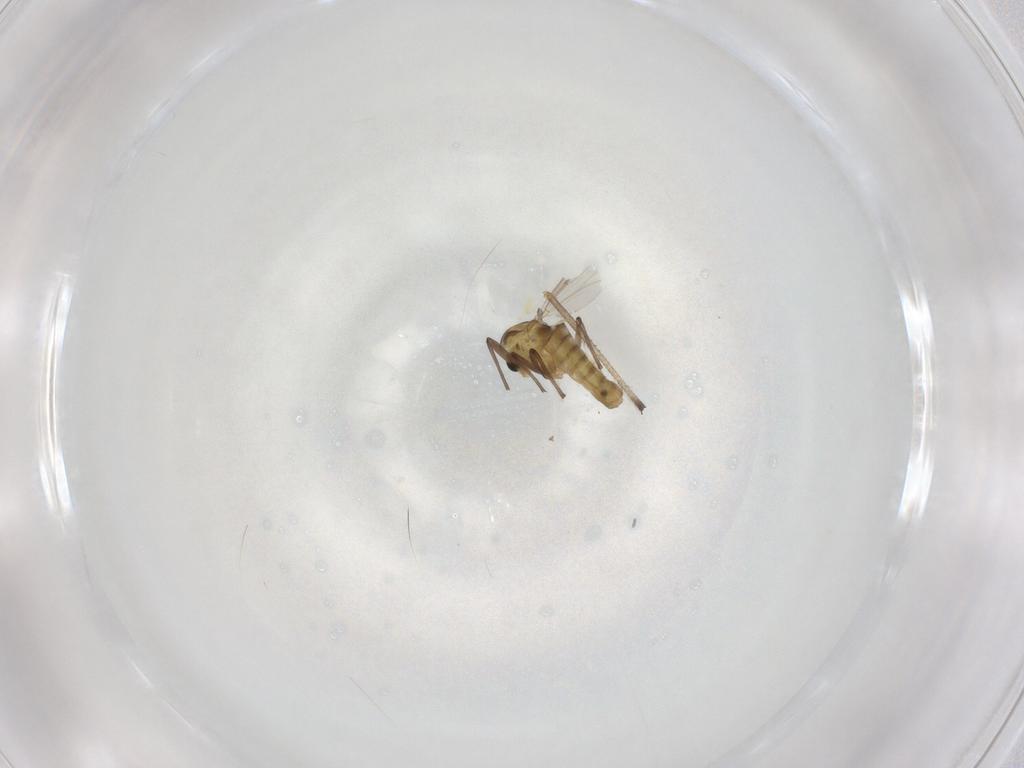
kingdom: Animalia
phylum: Arthropoda
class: Insecta
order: Diptera
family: Chironomidae
